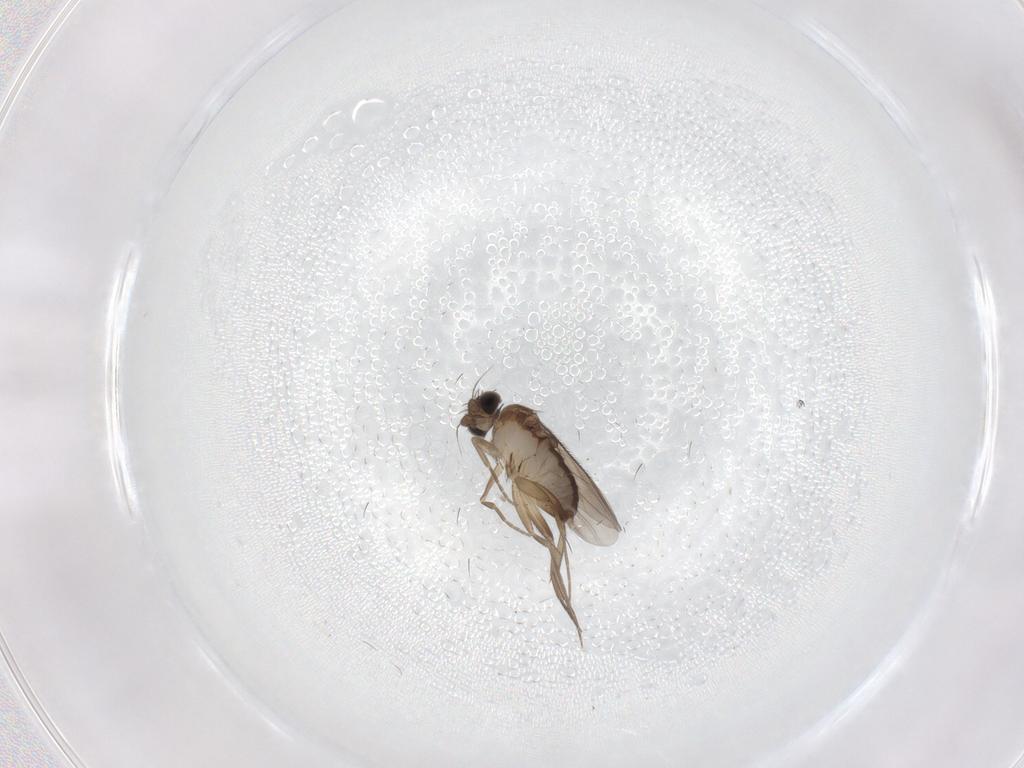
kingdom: Animalia
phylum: Arthropoda
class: Insecta
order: Diptera
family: Phoridae
